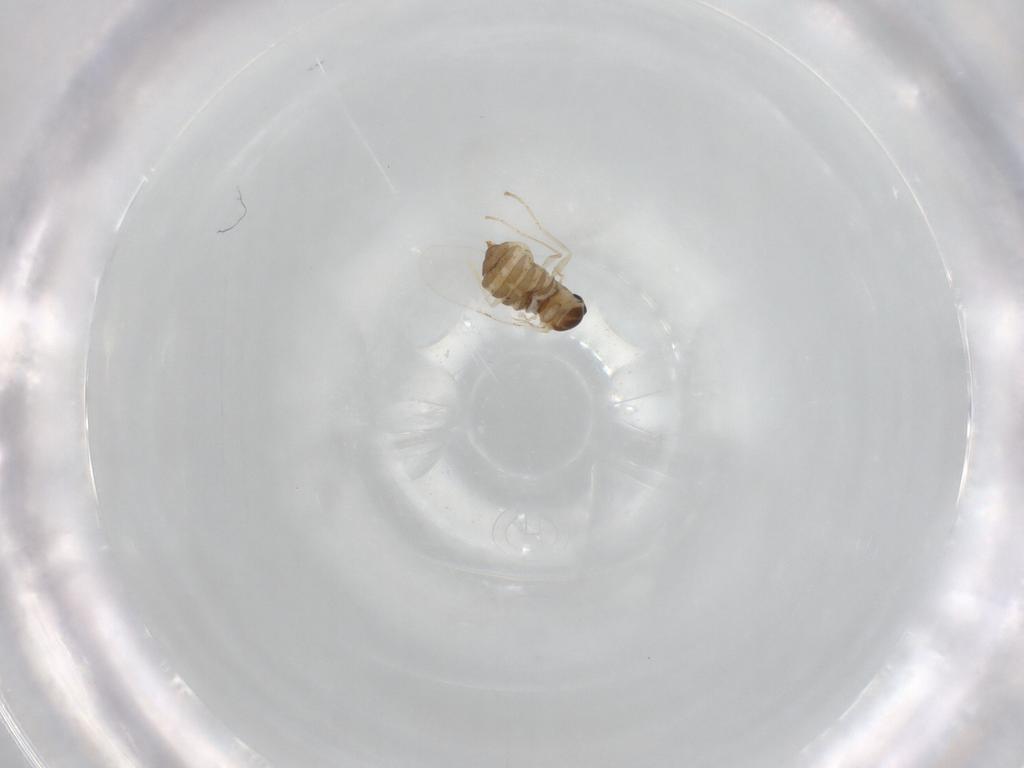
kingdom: Animalia
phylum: Arthropoda
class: Insecta
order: Diptera
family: Cecidomyiidae
